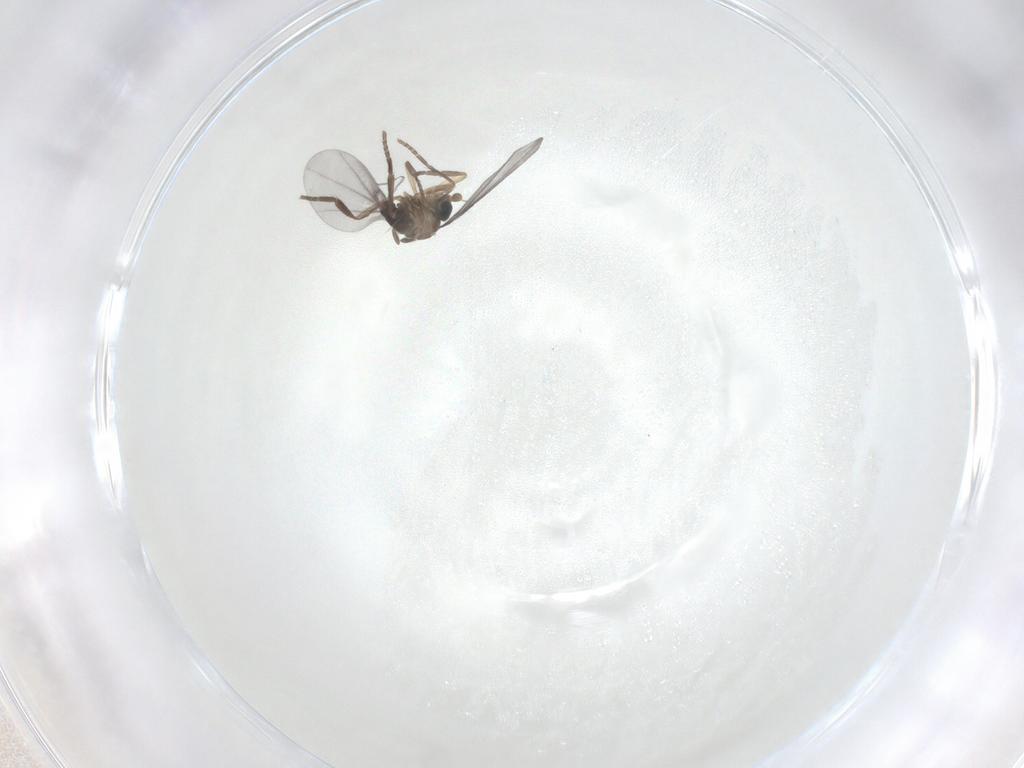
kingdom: Animalia
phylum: Arthropoda
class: Insecta
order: Diptera
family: Phoridae
